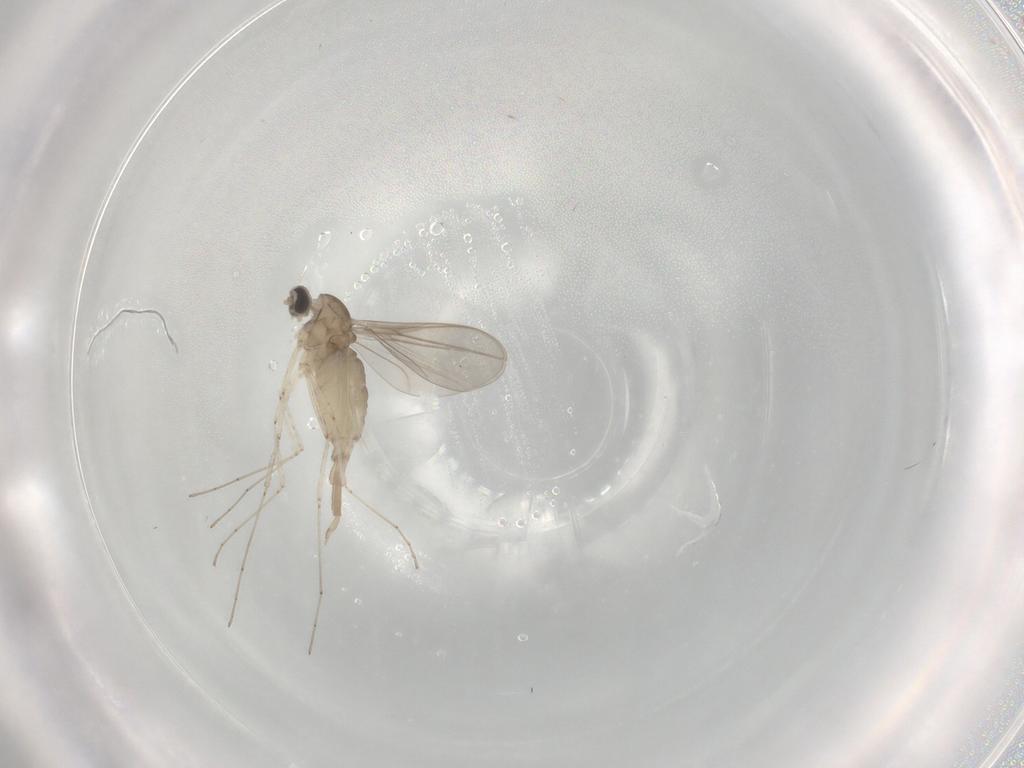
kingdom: Animalia
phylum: Arthropoda
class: Insecta
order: Diptera
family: Cecidomyiidae
